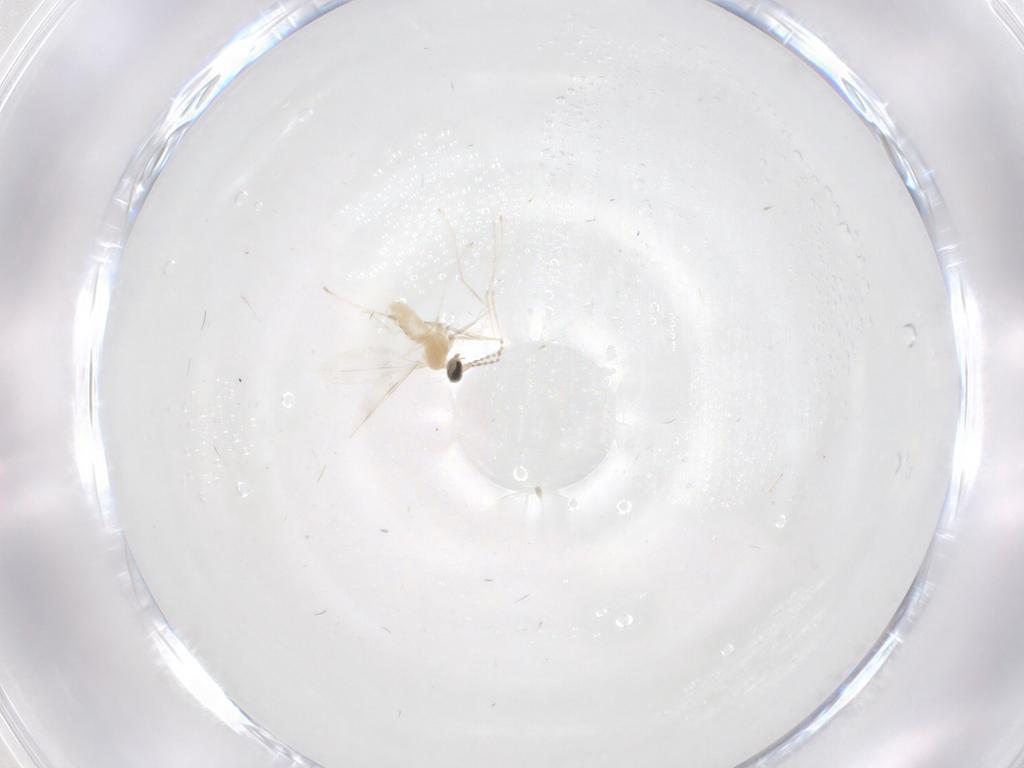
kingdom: Animalia
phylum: Arthropoda
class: Insecta
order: Diptera
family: Cecidomyiidae
